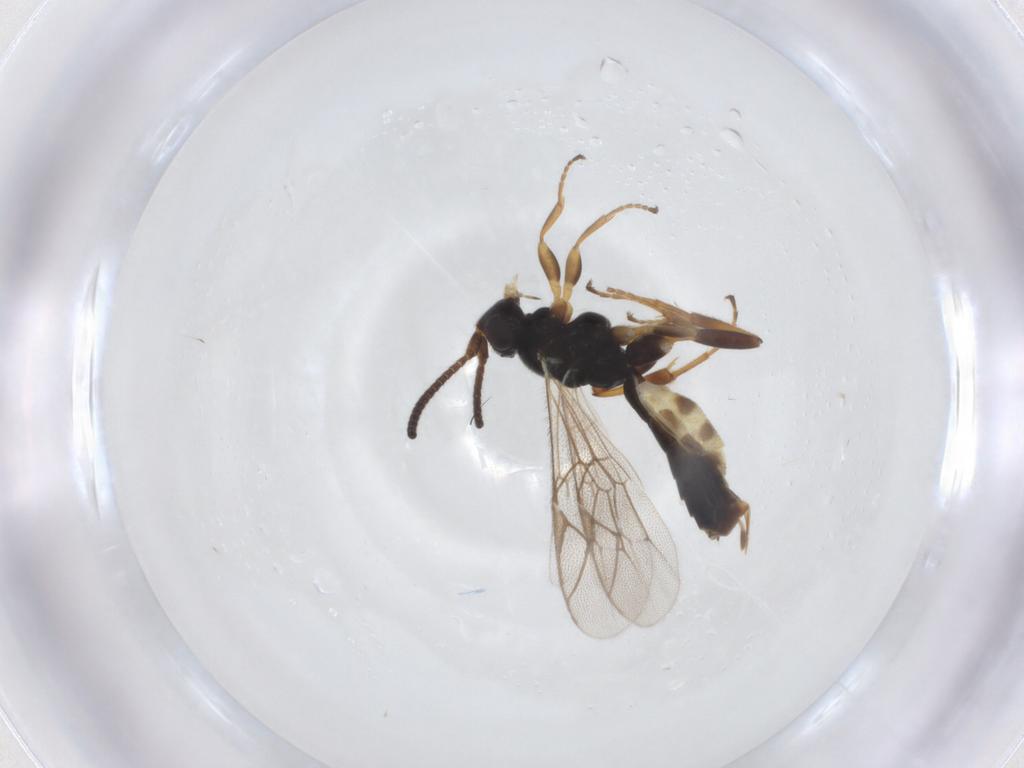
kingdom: Animalia
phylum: Arthropoda
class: Insecta
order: Hymenoptera
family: Ichneumonidae
